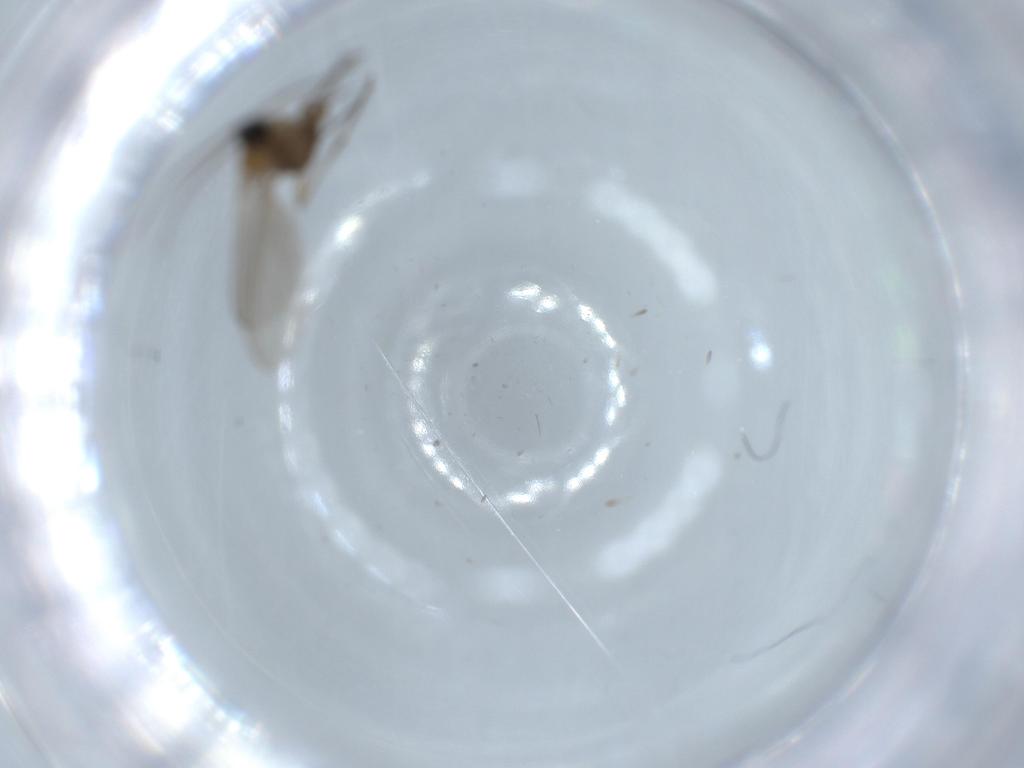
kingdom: Animalia
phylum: Arthropoda
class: Insecta
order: Diptera
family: Sciaridae
